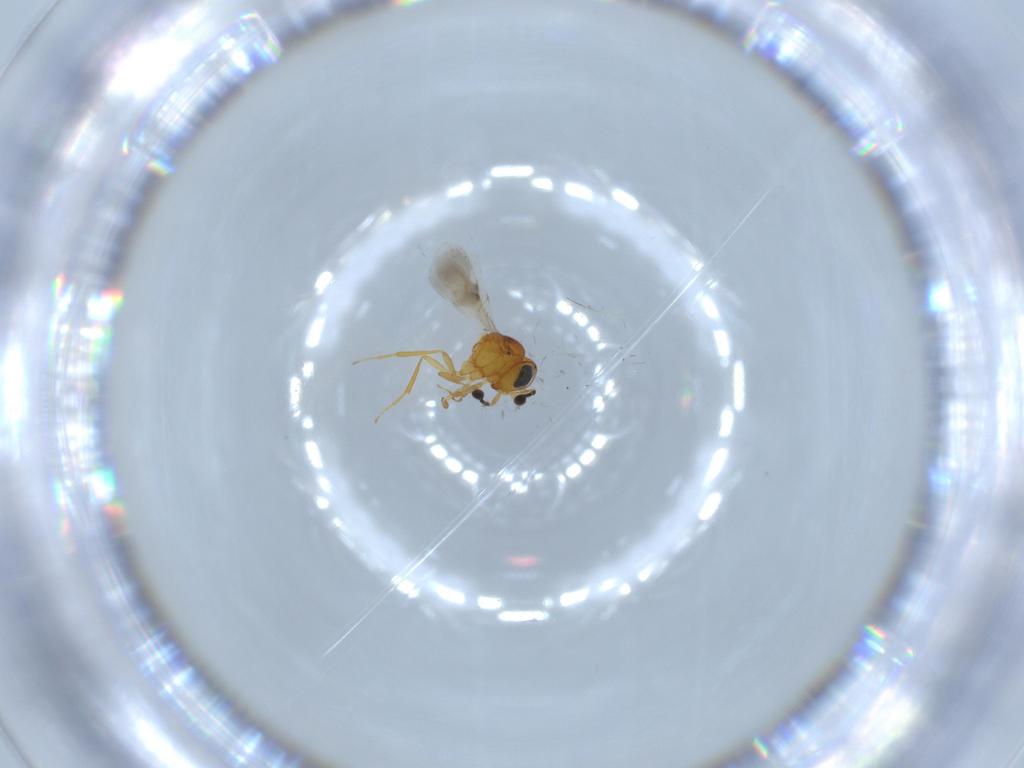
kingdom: Animalia
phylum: Arthropoda
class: Insecta
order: Hymenoptera
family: Scelionidae
